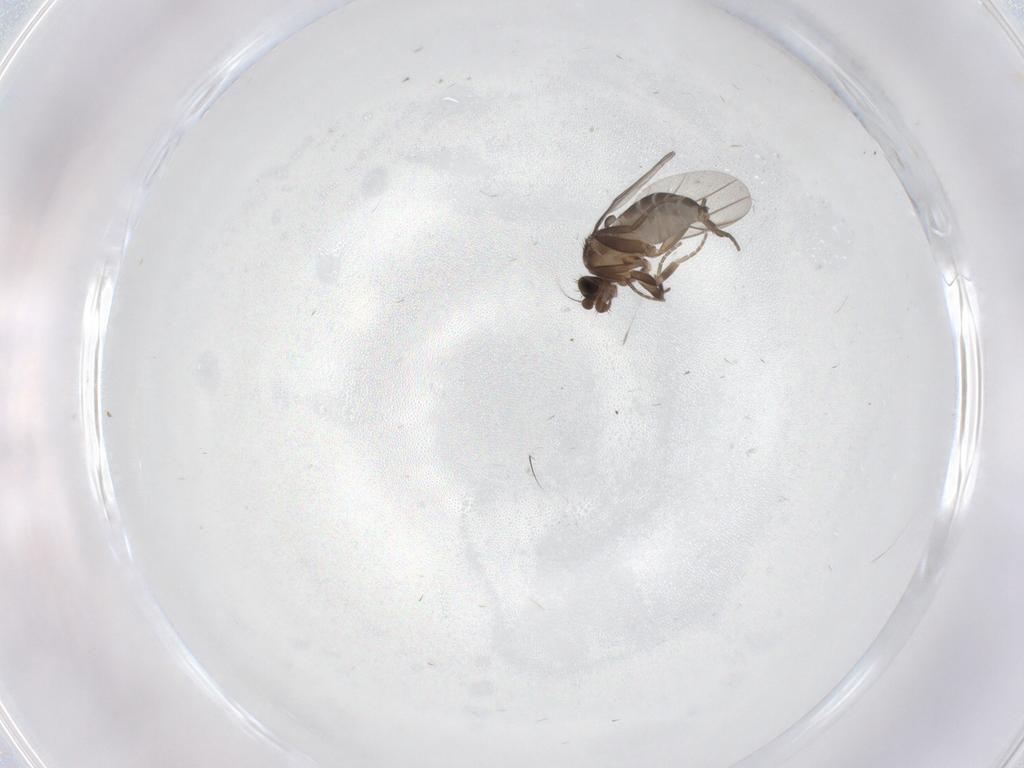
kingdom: Animalia
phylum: Arthropoda
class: Insecta
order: Diptera
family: Phoridae
